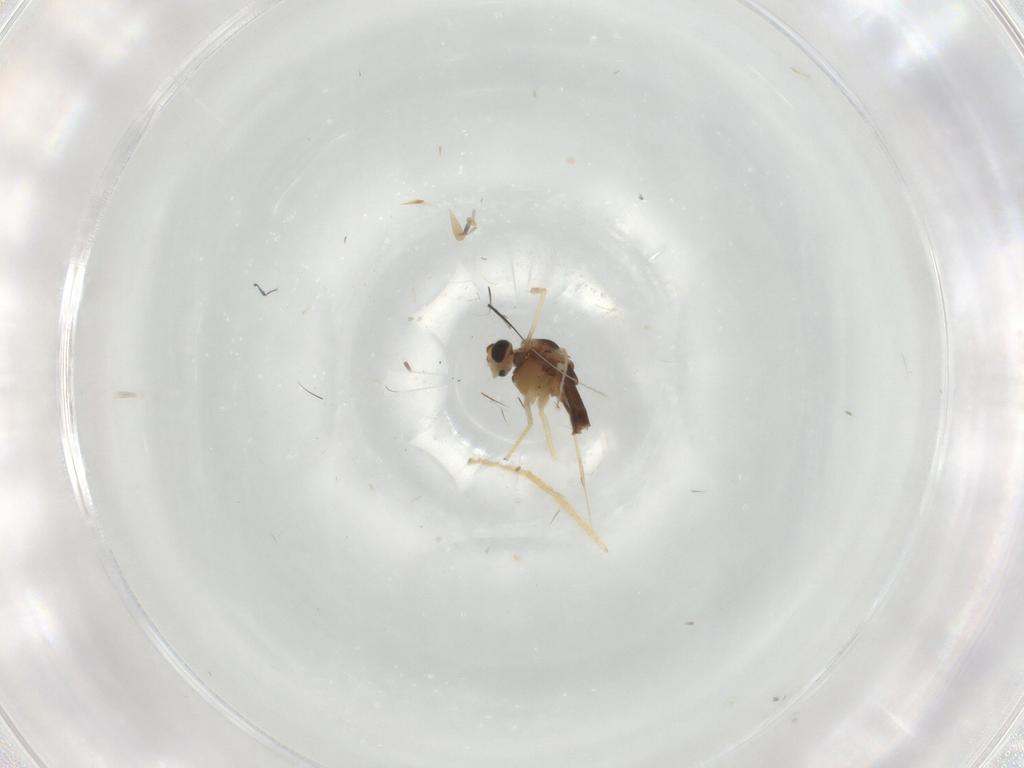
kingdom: Animalia
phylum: Arthropoda
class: Insecta
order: Diptera
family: Chironomidae
